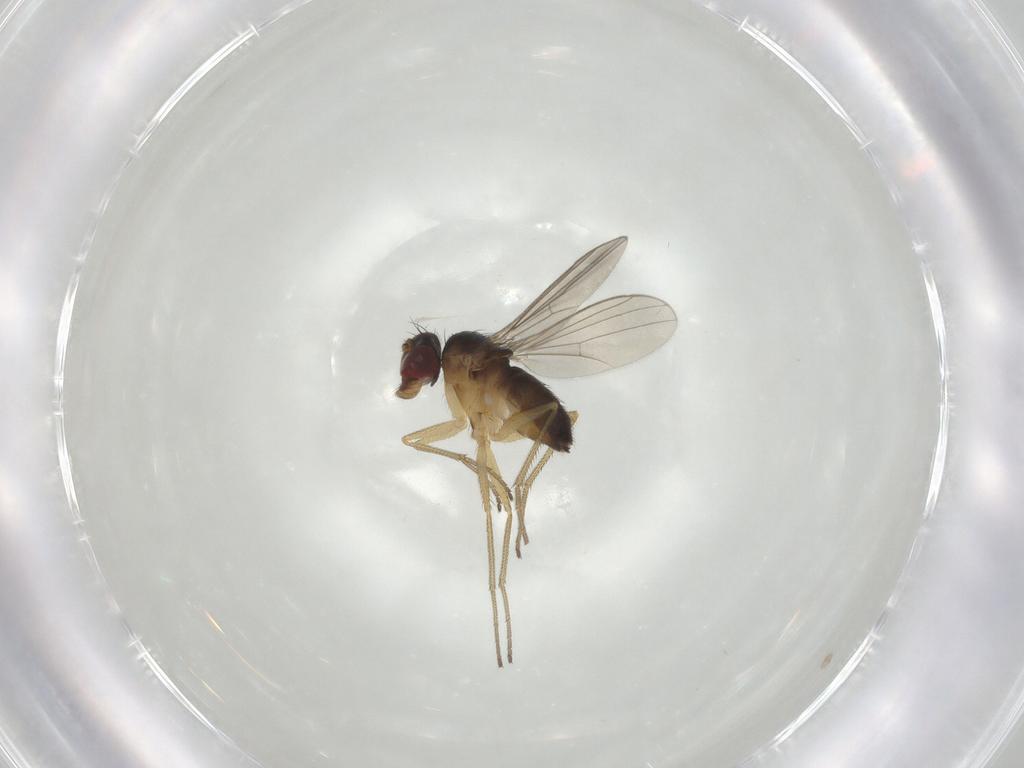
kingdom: Animalia
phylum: Arthropoda
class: Insecta
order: Diptera
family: Dolichopodidae
